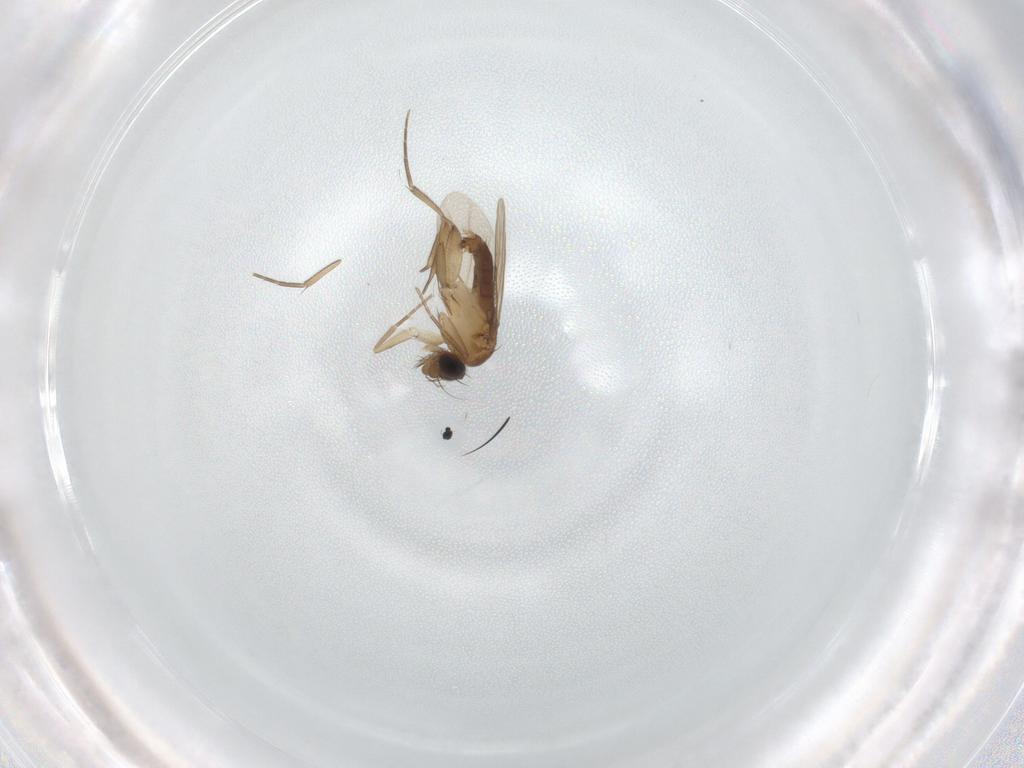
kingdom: Animalia
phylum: Arthropoda
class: Insecta
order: Diptera
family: Phoridae
